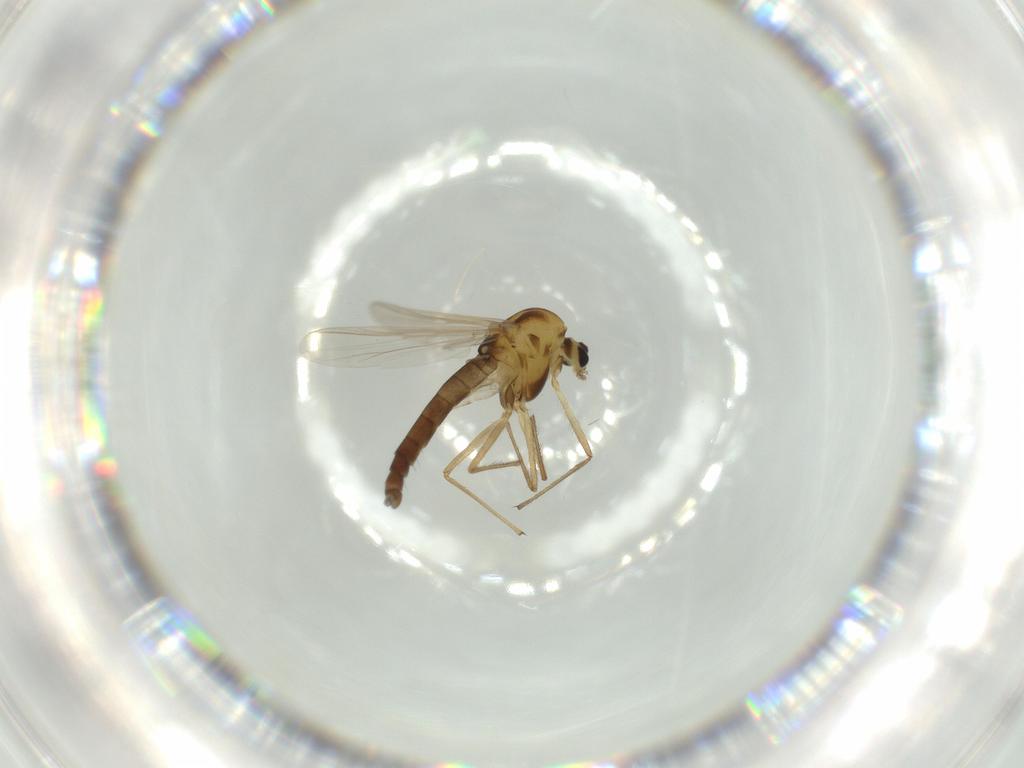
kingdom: Animalia
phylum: Arthropoda
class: Insecta
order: Diptera
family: Chironomidae
